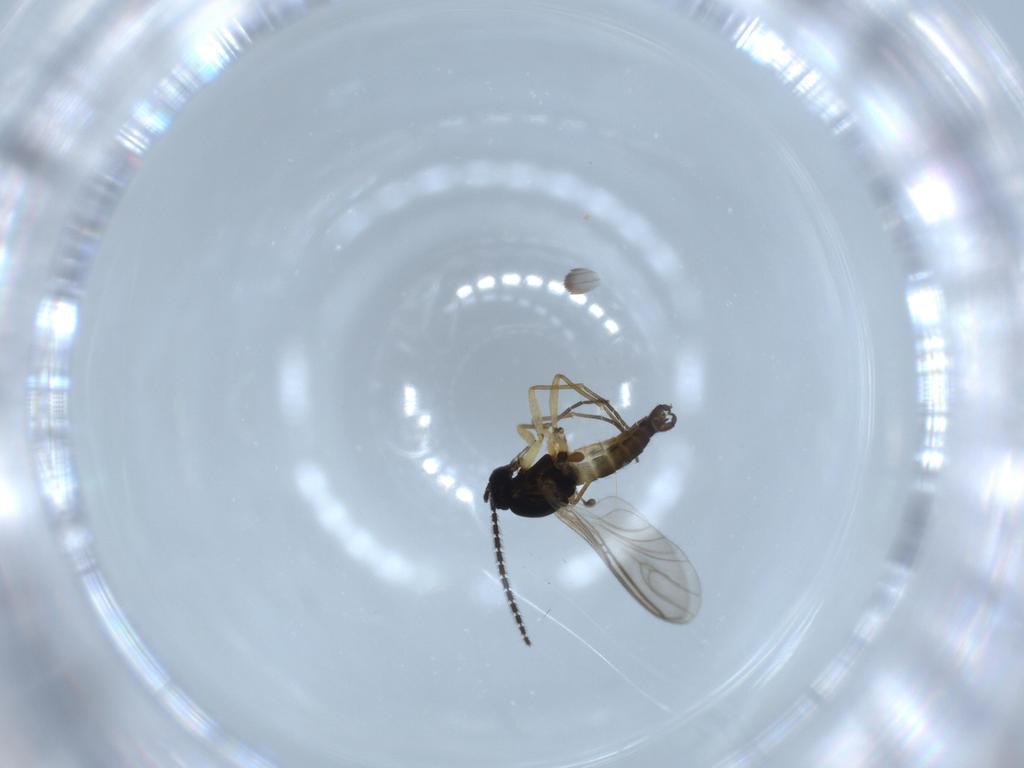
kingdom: Animalia
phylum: Arthropoda
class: Insecta
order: Diptera
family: Sciaridae
